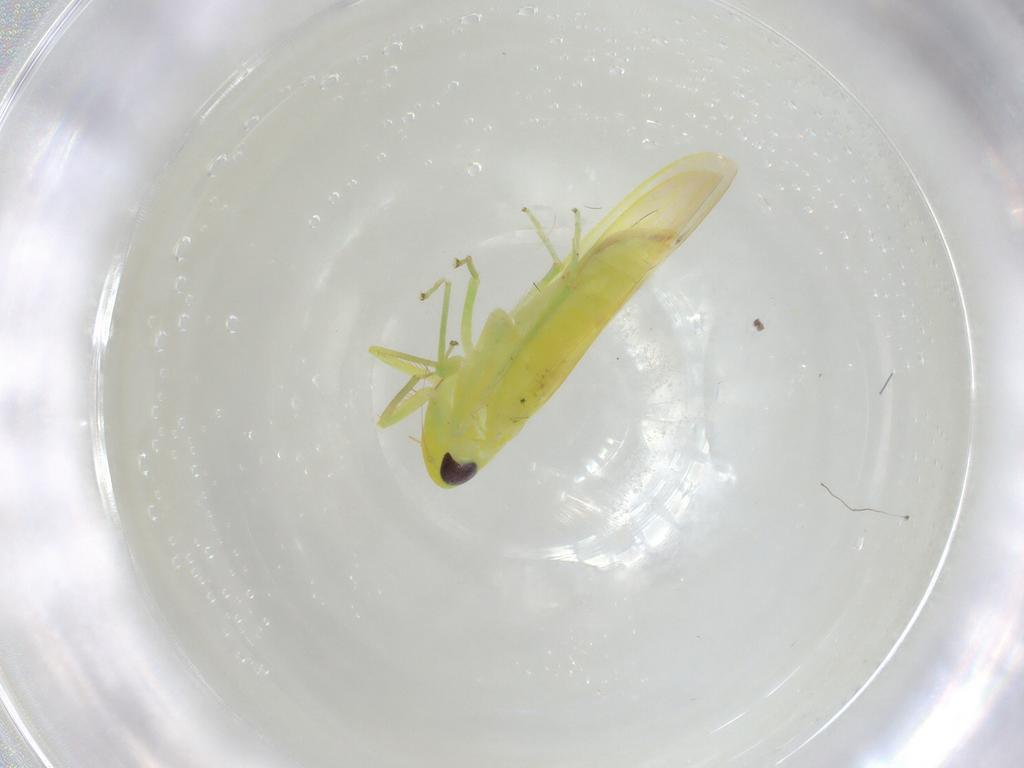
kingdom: Animalia
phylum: Arthropoda
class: Insecta
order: Hemiptera
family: Cicadellidae
